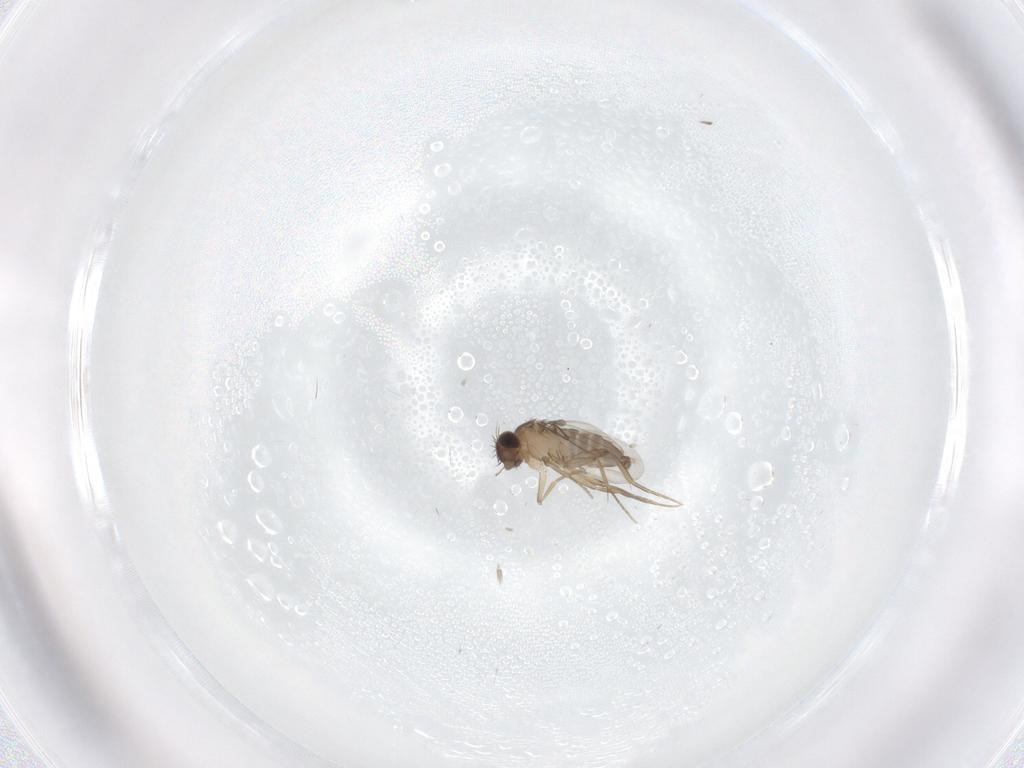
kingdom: Animalia
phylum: Arthropoda
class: Insecta
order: Diptera
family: Phoridae
